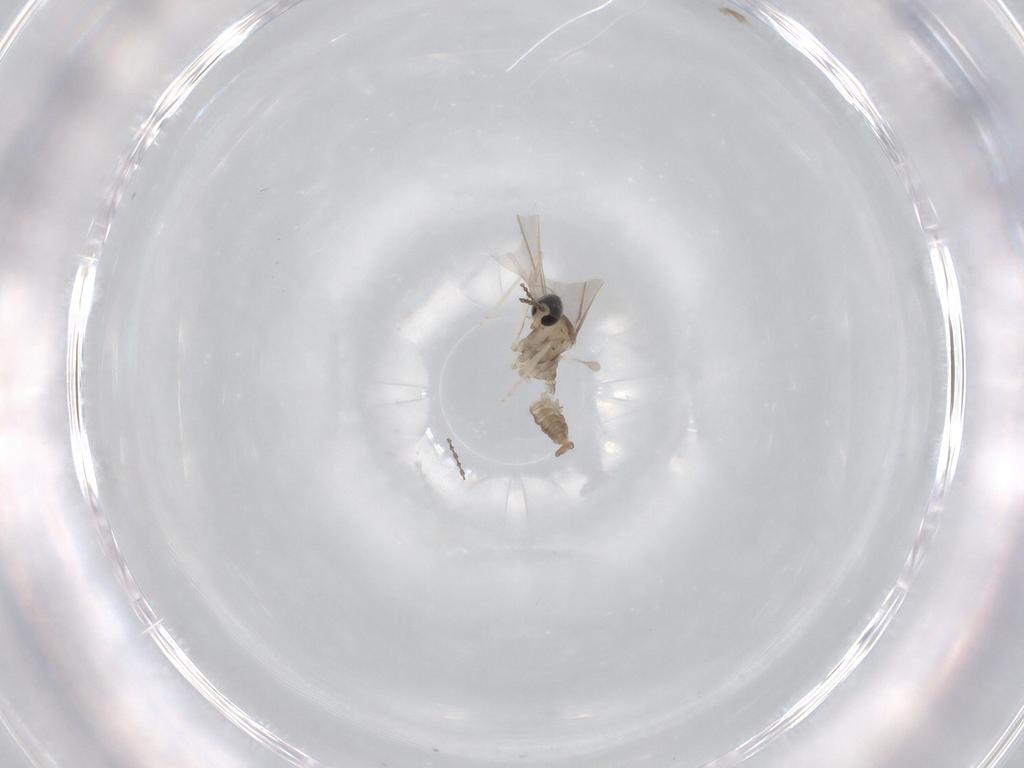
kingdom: Animalia
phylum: Arthropoda
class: Insecta
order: Diptera
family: Cecidomyiidae
